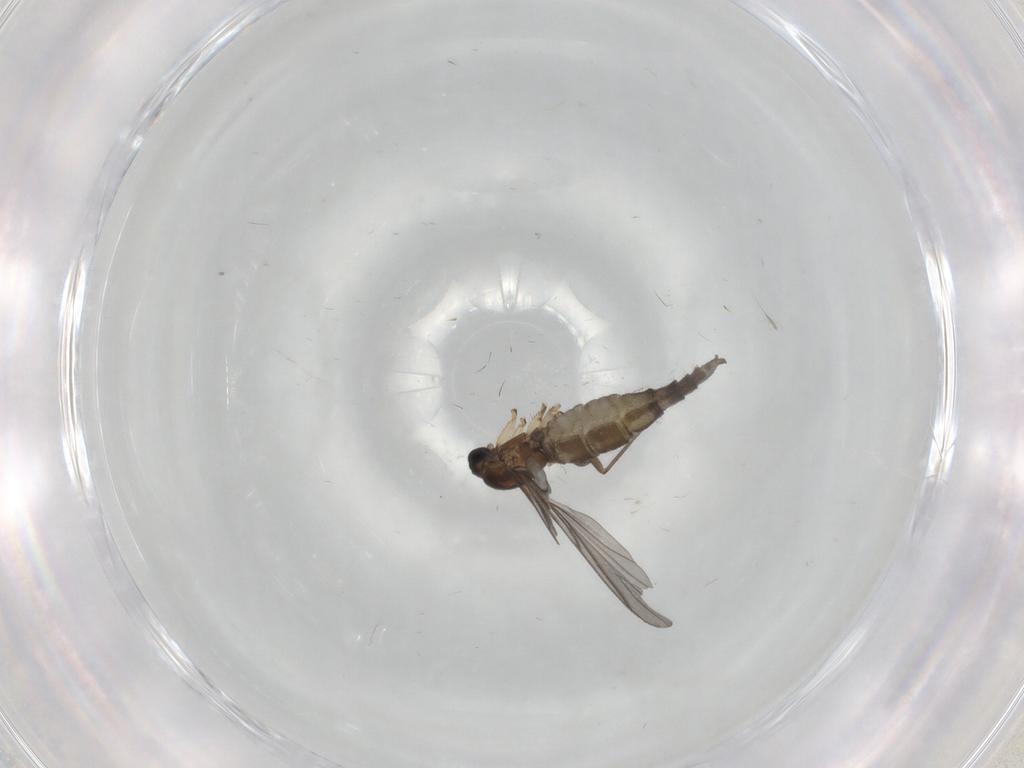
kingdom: Animalia
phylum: Arthropoda
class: Insecta
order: Diptera
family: Sciaridae
